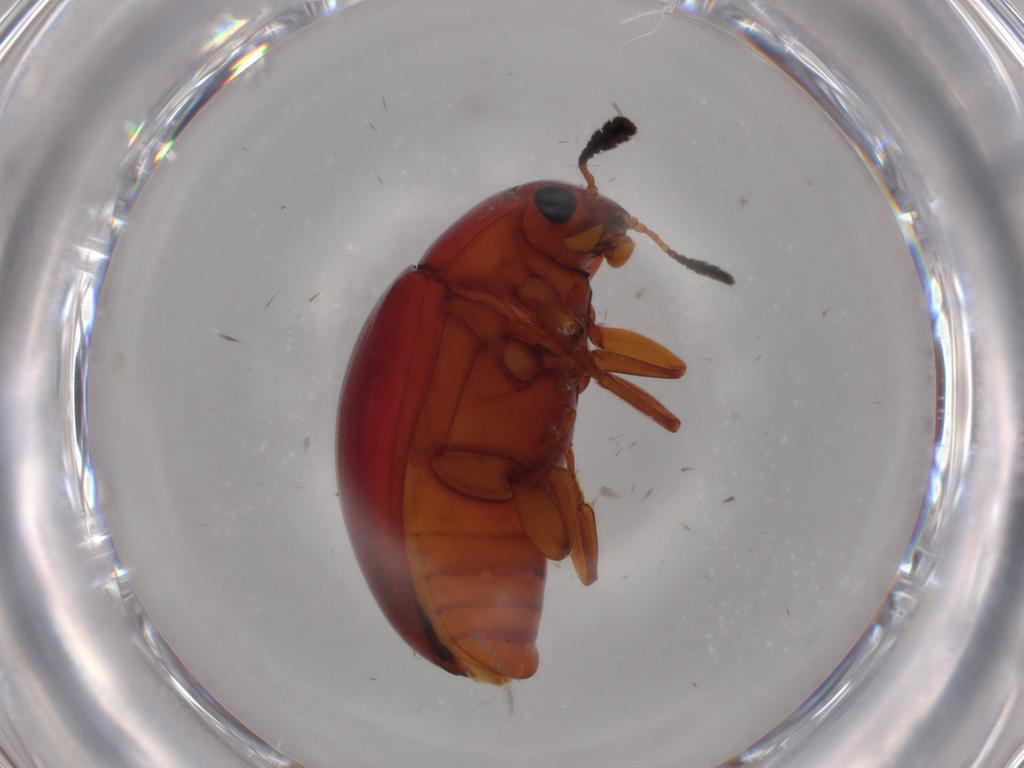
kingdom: Animalia
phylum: Arthropoda
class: Insecta
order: Coleoptera
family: Erotylidae
